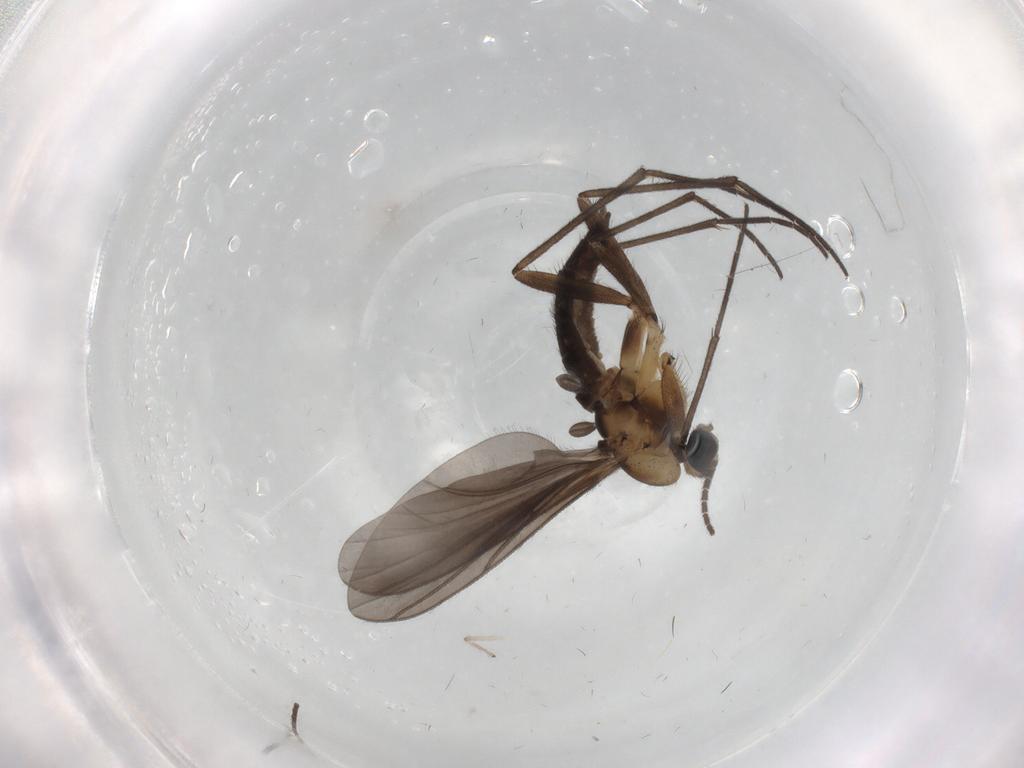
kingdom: Animalia
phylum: Arthropoda
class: Insecta
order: Diptera
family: Sciaridae
